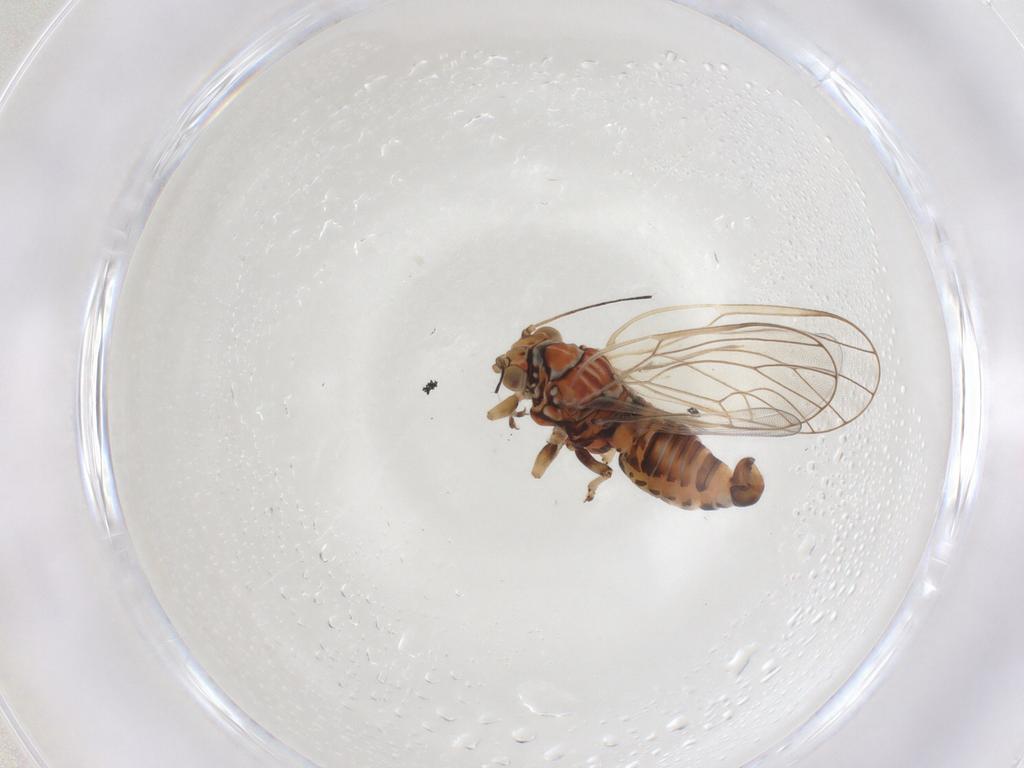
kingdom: Animalia
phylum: Arthropoda
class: Insecta
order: Hemiptera
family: Psyllidae
